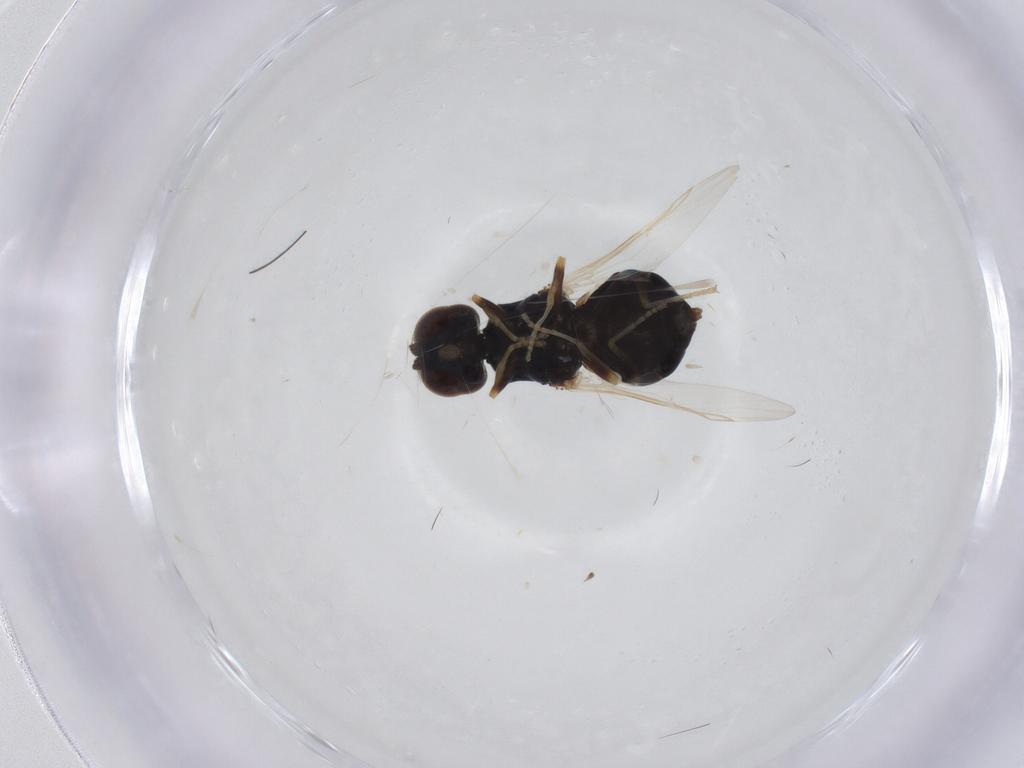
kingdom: Animalia
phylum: Arthropoda
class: Insecta
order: Diptera
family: Stratiomyidae
